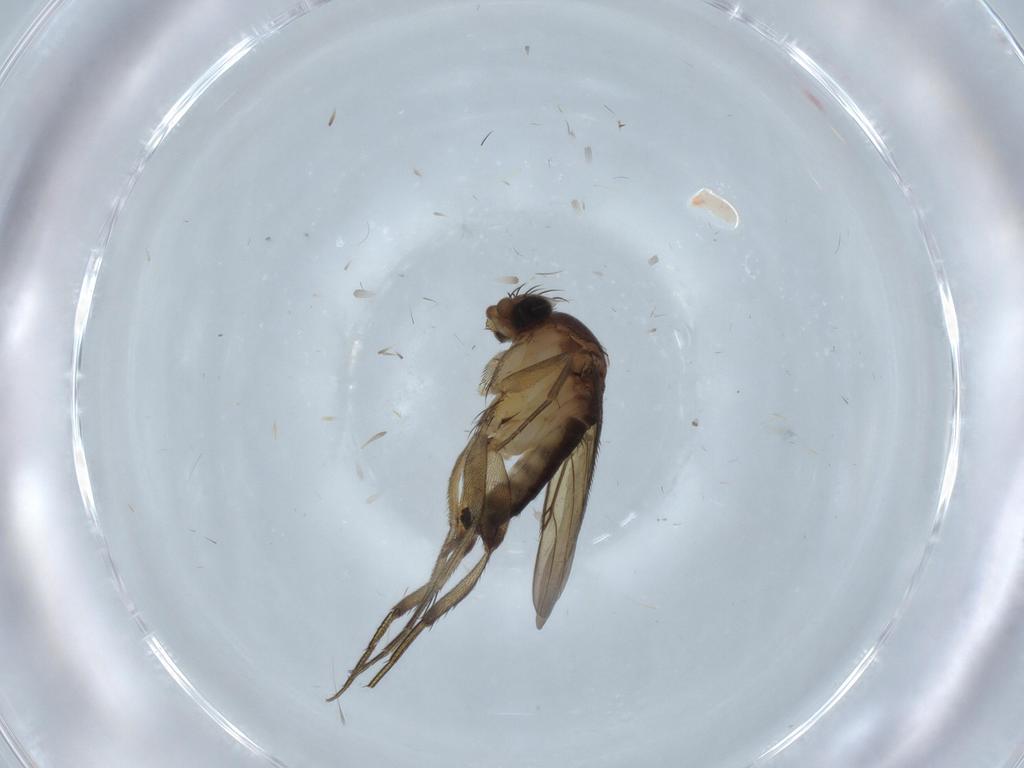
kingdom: Animalia
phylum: Arthropoda
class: Insecta
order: Diptera
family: Phoridae
